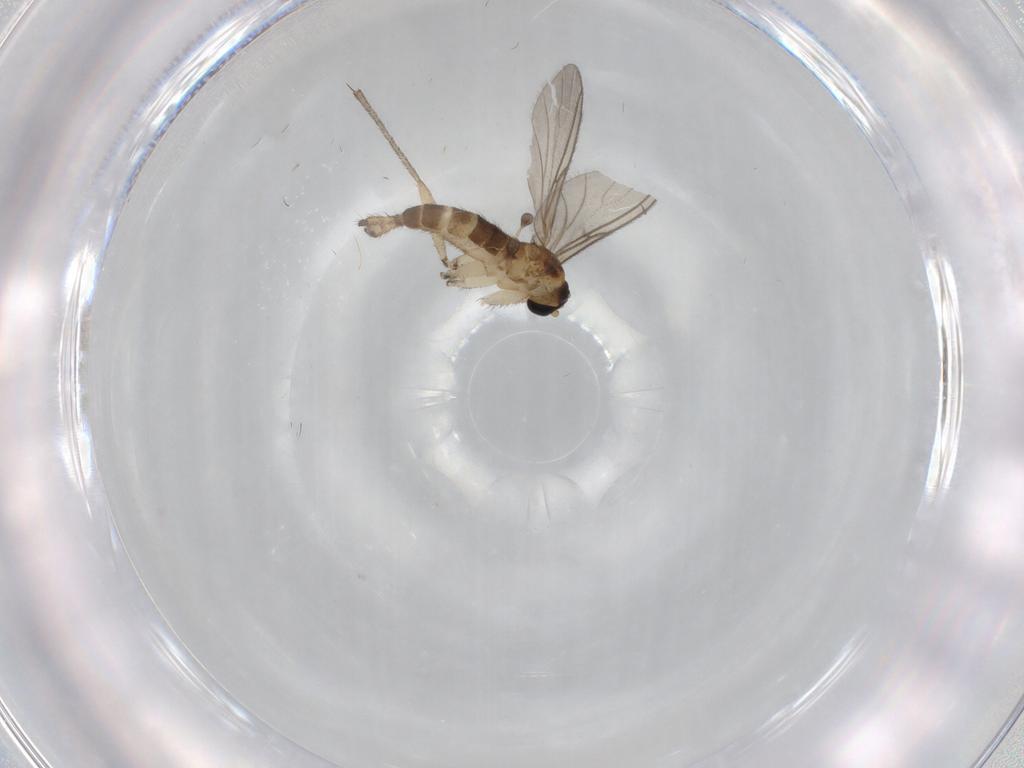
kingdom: Animalia
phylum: Arthropoda
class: Insecta
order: Diptera
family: Sciaridae
